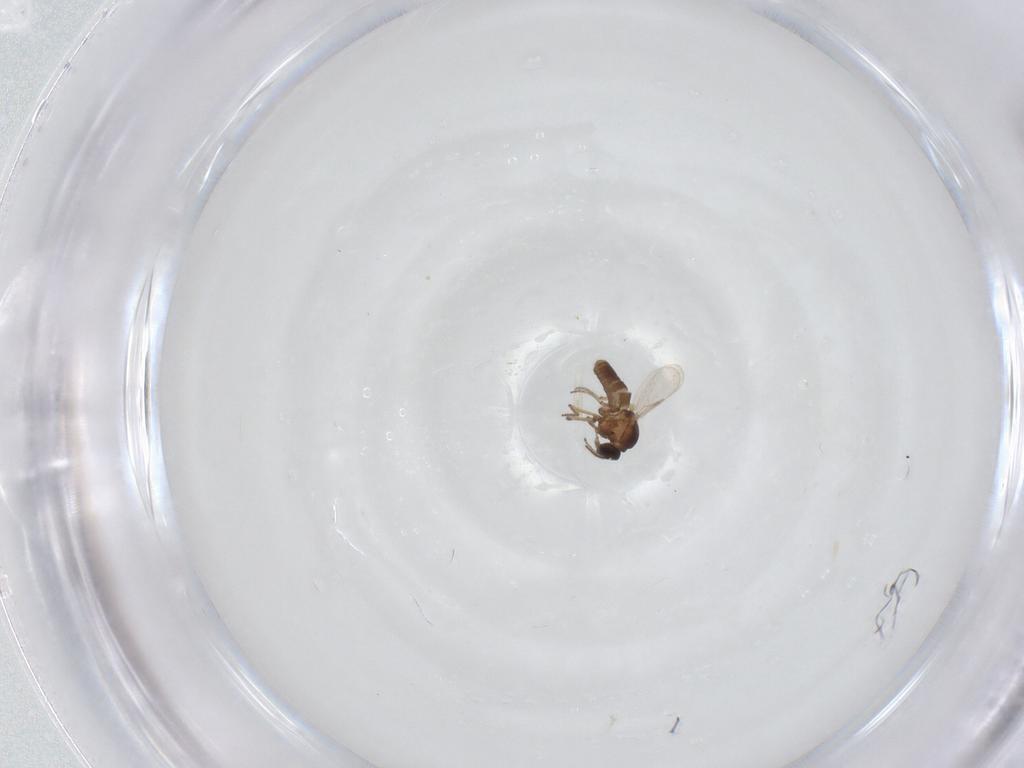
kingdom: Animalia
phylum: Arthropoda
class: Insecta
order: Diptera
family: Ceratopogonidae
